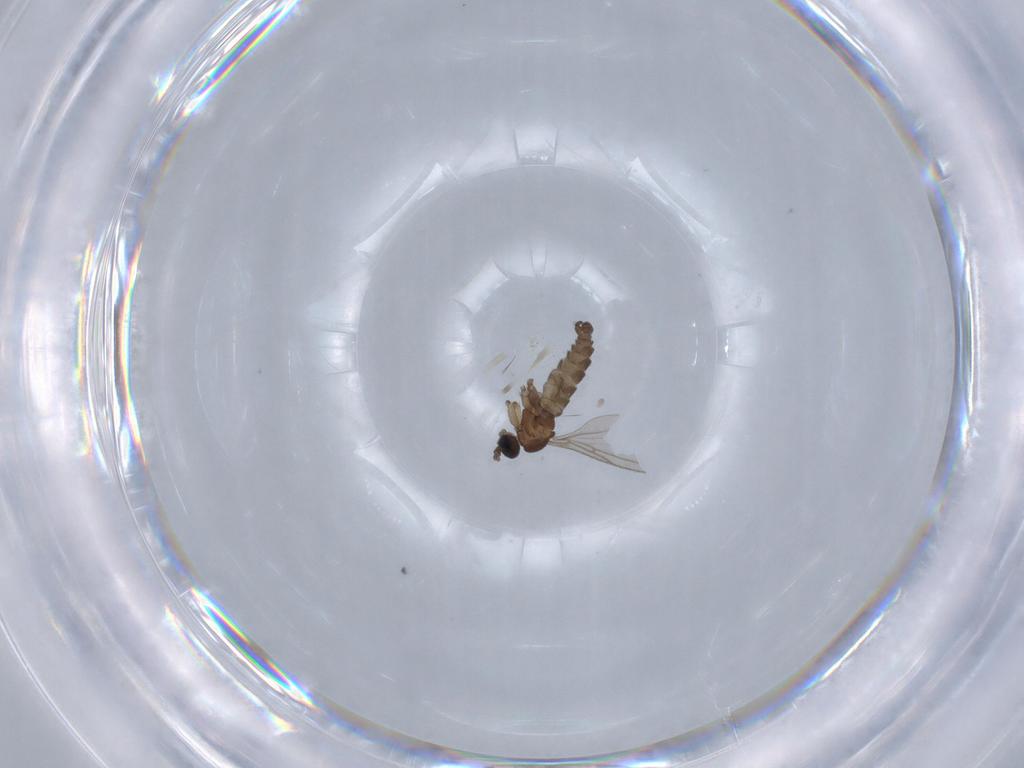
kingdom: Animalia
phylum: Arthropoda
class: Insecta
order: Diptera
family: Sciaridae
